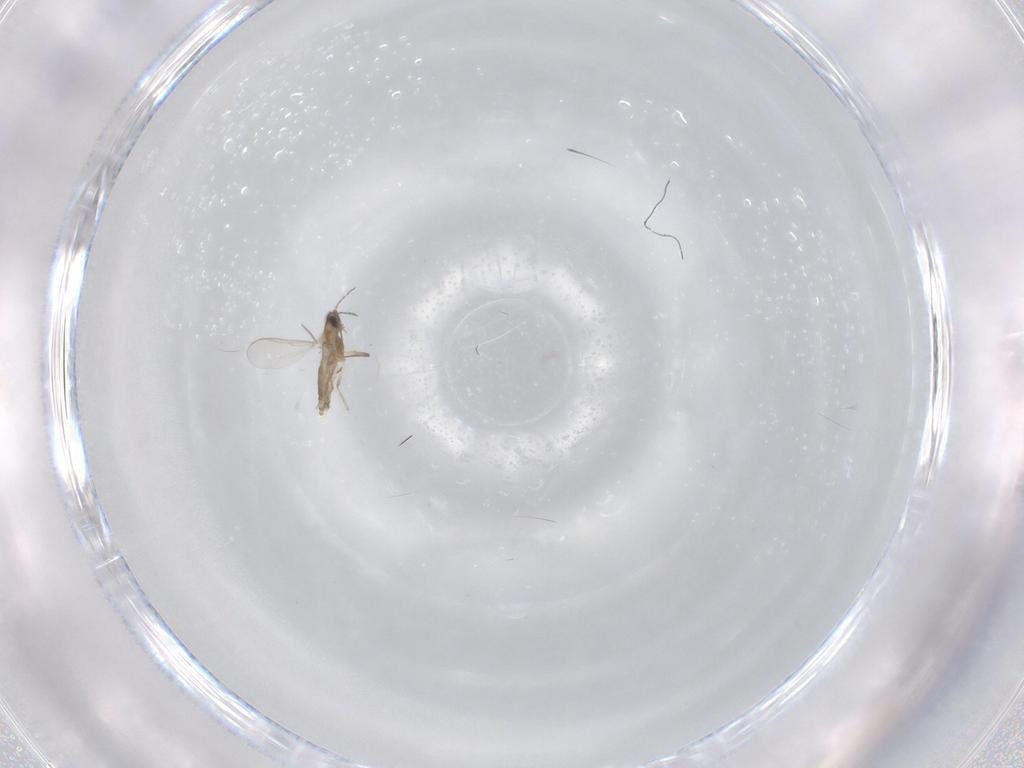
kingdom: Animalia
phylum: Arthropoda
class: Insecta
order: Diptera
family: Chironomidae
